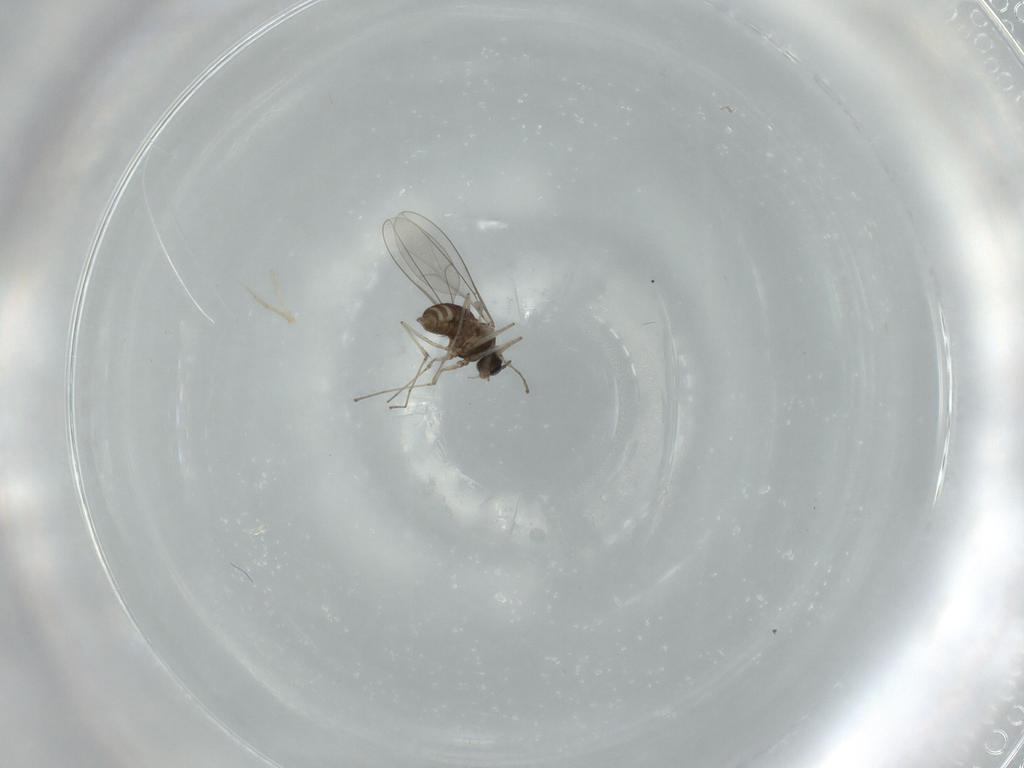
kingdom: Animalia
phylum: Arthropoda
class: Insecta
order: Diptera
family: Cecidomyiidae
